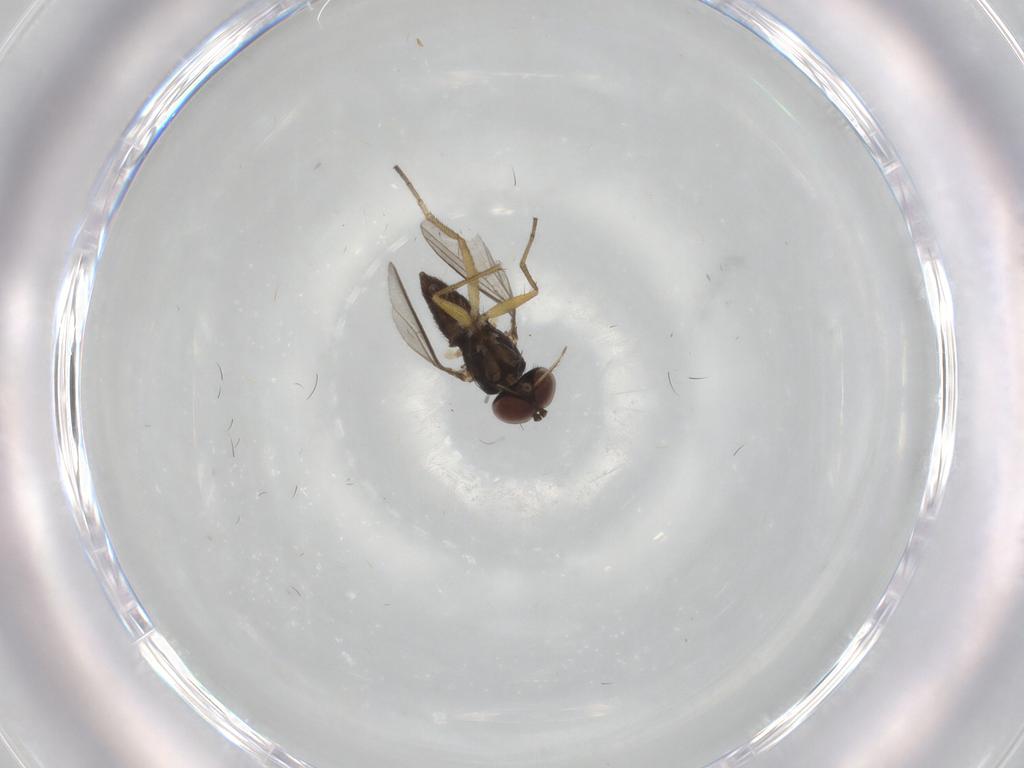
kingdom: Animalia
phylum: Arthropoda
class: Insecta
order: Diptera
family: Dolichopodidae
